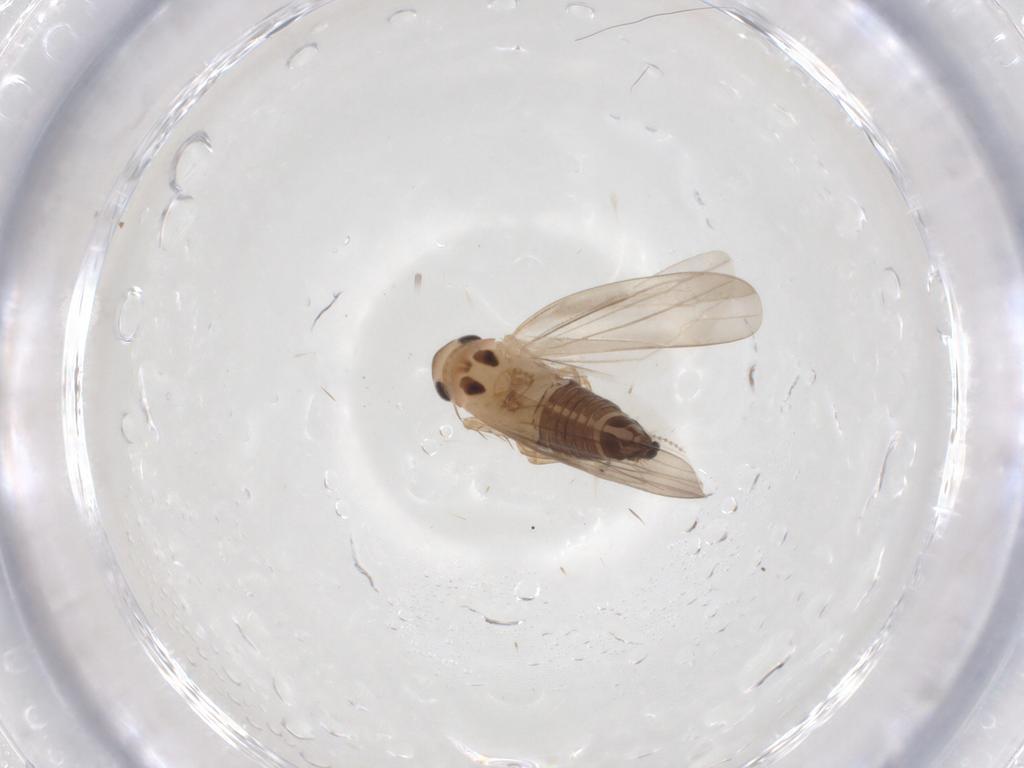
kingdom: Animalia
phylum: Arthropoda
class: Insecta
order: Hemiptera
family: Cicadellidae
